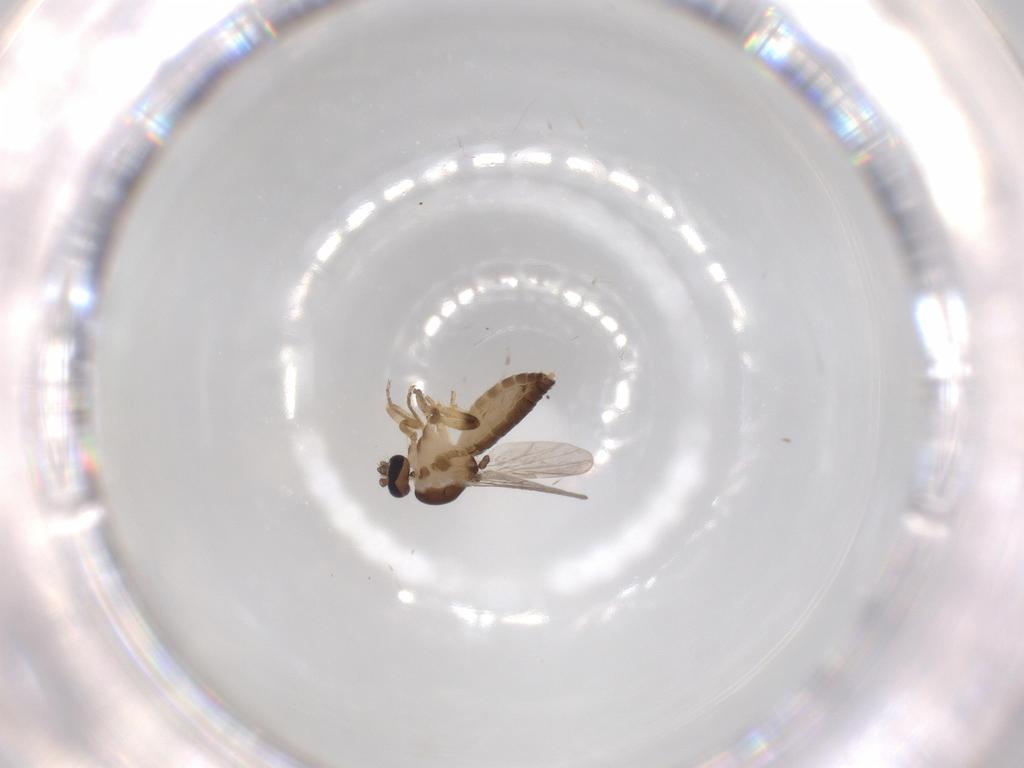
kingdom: Animalia
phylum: Arthropoda
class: Insecta
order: Diptera
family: Ceratopogonidae
